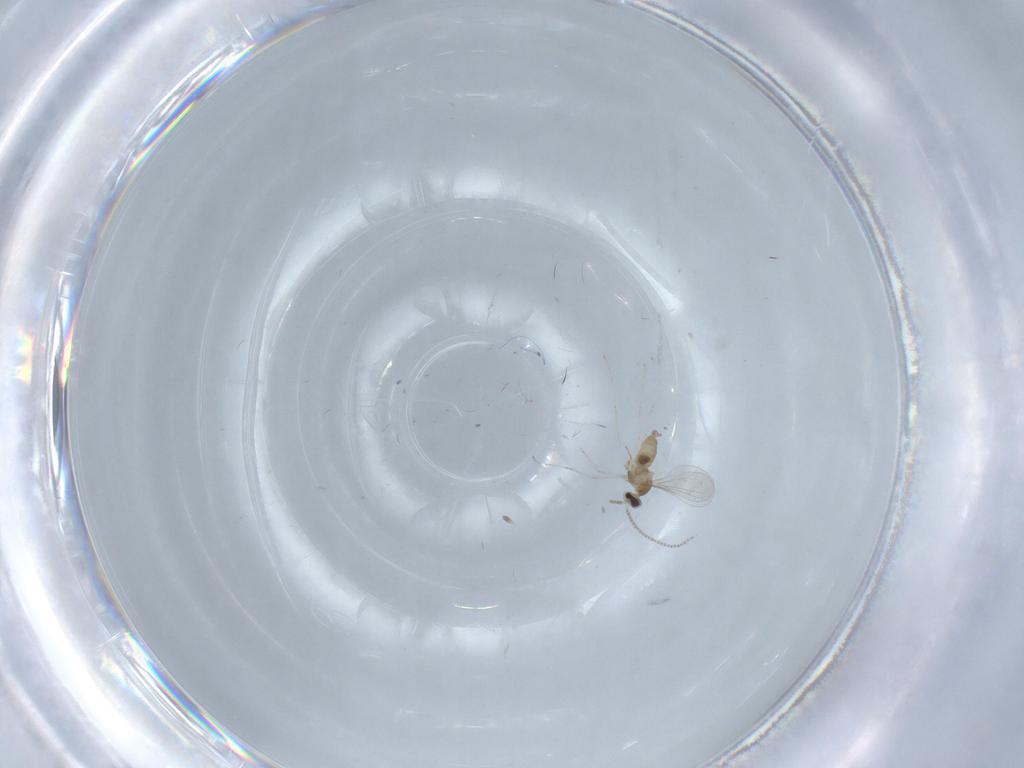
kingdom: Animalia
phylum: Arthropoda
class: Insecta
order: Diptera
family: Cecidomyiidae
